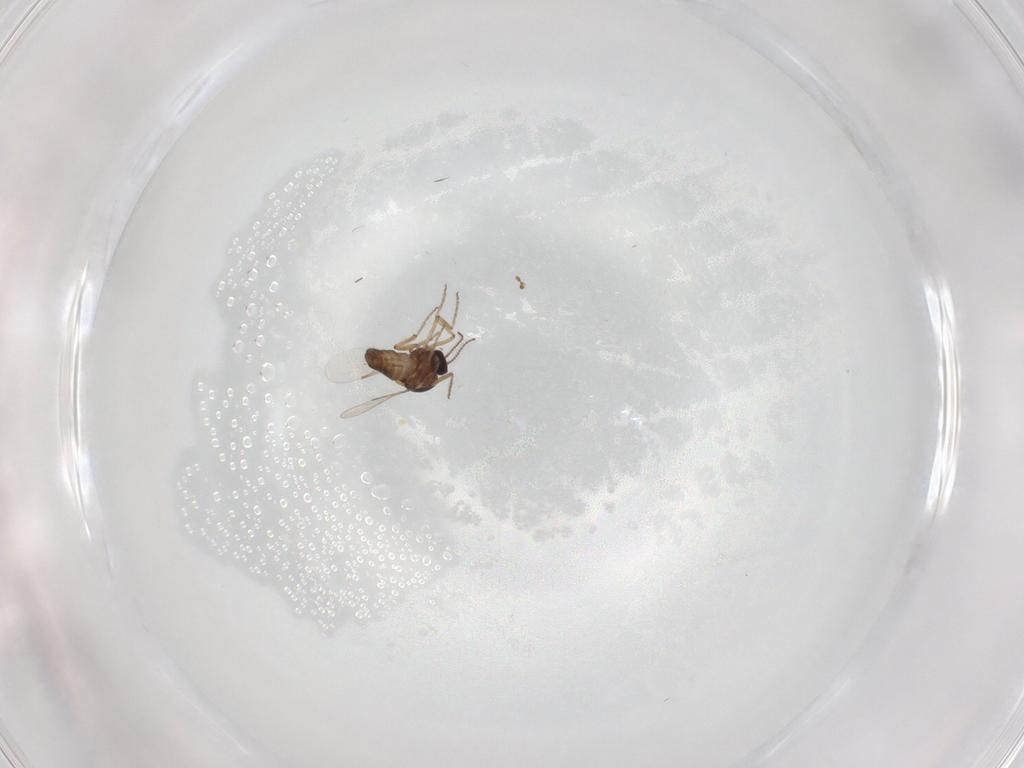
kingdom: Animalia
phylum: Arthropoda
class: Insecta
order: Diptera
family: Ceratopogonidae
